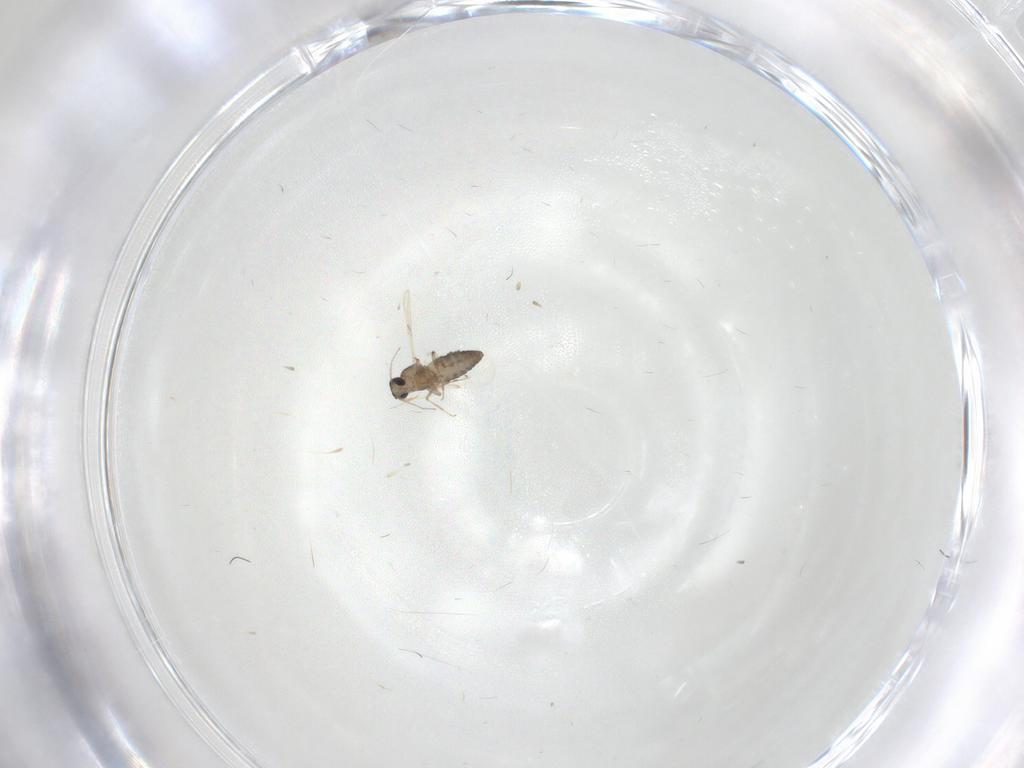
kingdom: Animalia
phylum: Arthropoda
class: Insecta
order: Diptera
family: Ceratopogonidae
